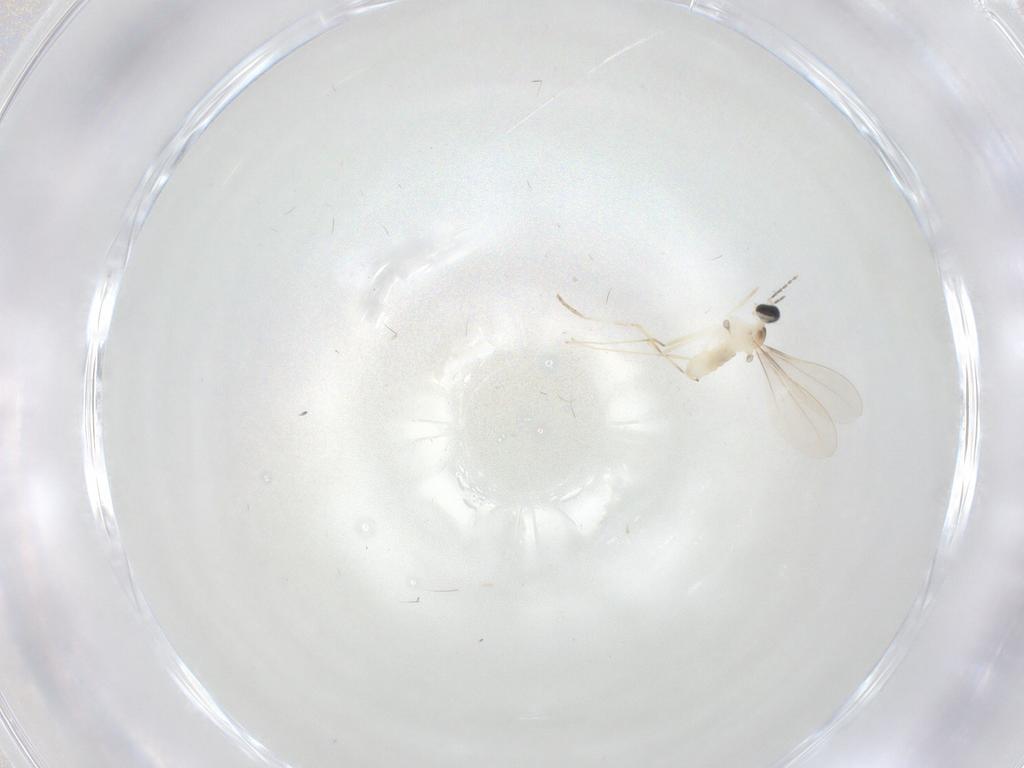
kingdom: Animalia
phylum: Arthropoda
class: Insecta
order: Diptera
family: Cecidomyiidae
